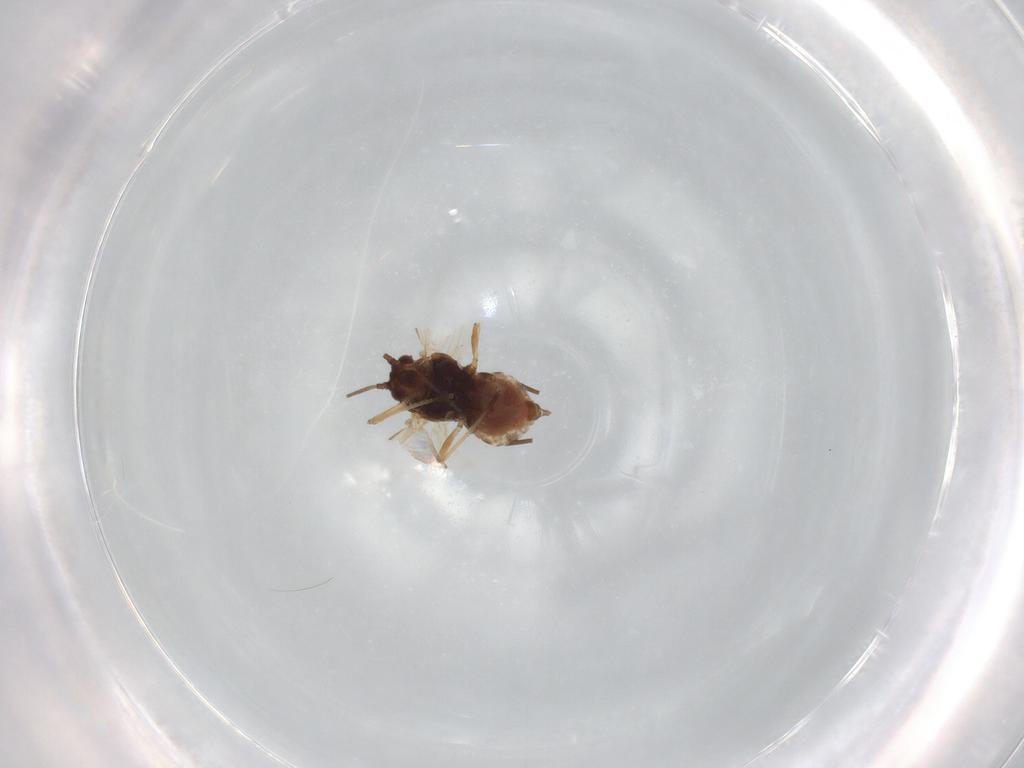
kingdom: Animalia
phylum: Arthropoda
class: Insecta
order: Hemiptera
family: Aphididae
